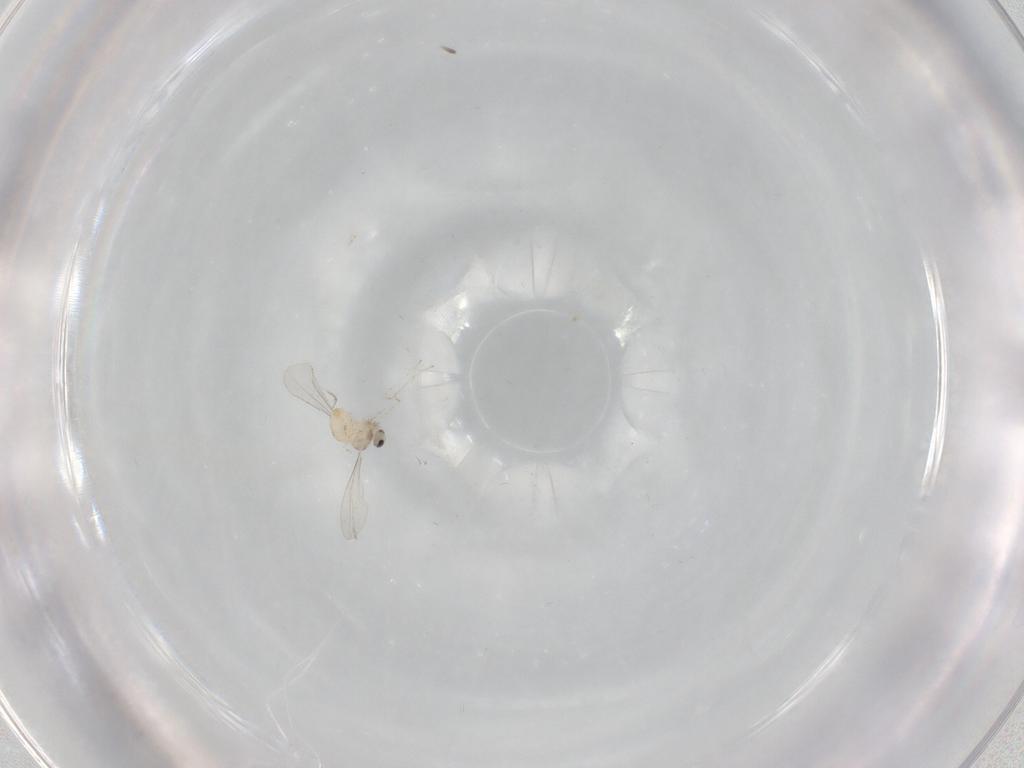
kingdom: Animalia
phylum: Arthropoda
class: Insecta
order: Diptera
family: Cecidomyiidae
